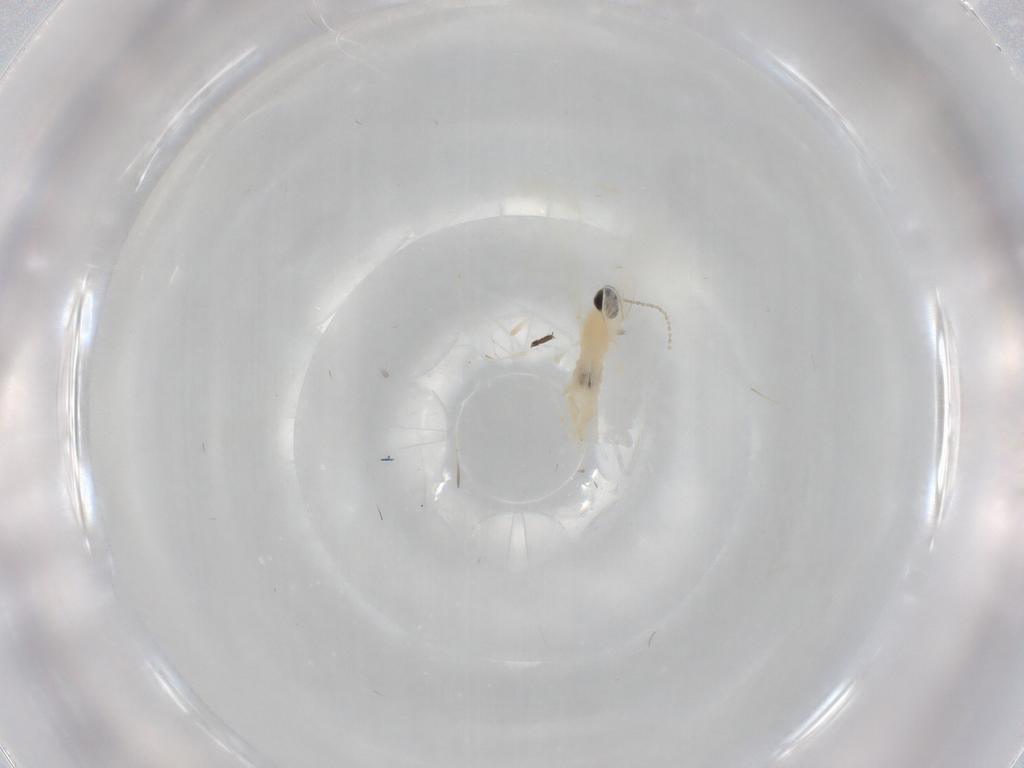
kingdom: Animalia
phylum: Arthropoda
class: Insecta
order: Diptera
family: Cecidomyiidae
